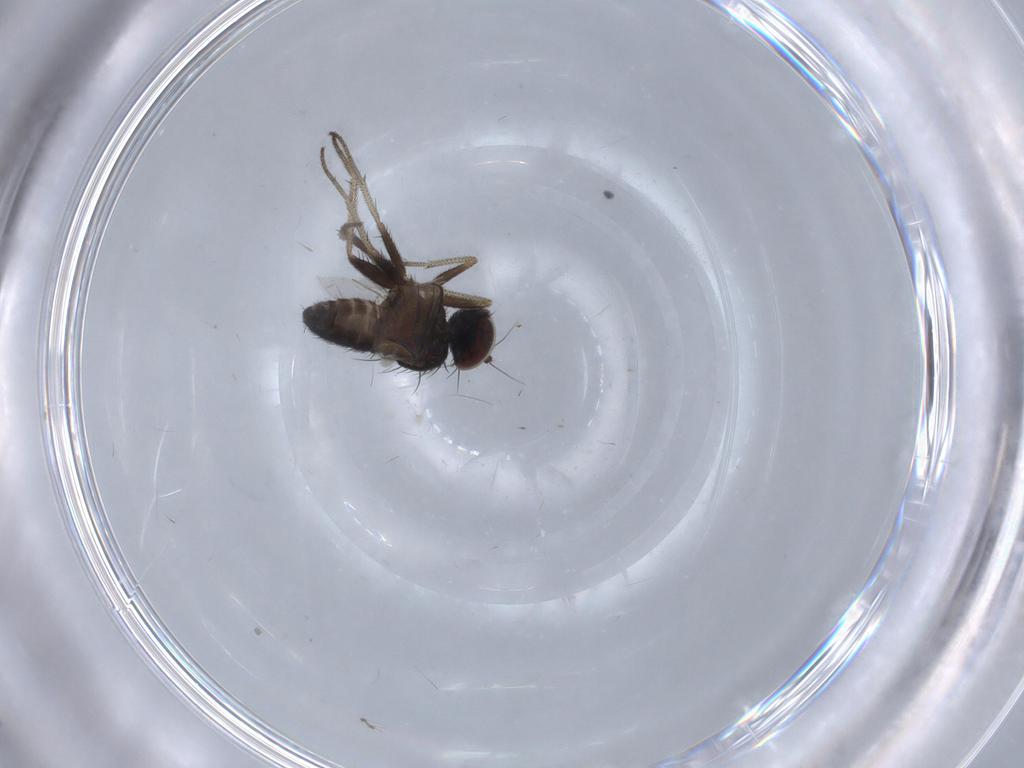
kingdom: Animalia
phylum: Arthropoda
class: Insecta
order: Diptera
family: Dolichopodidae
